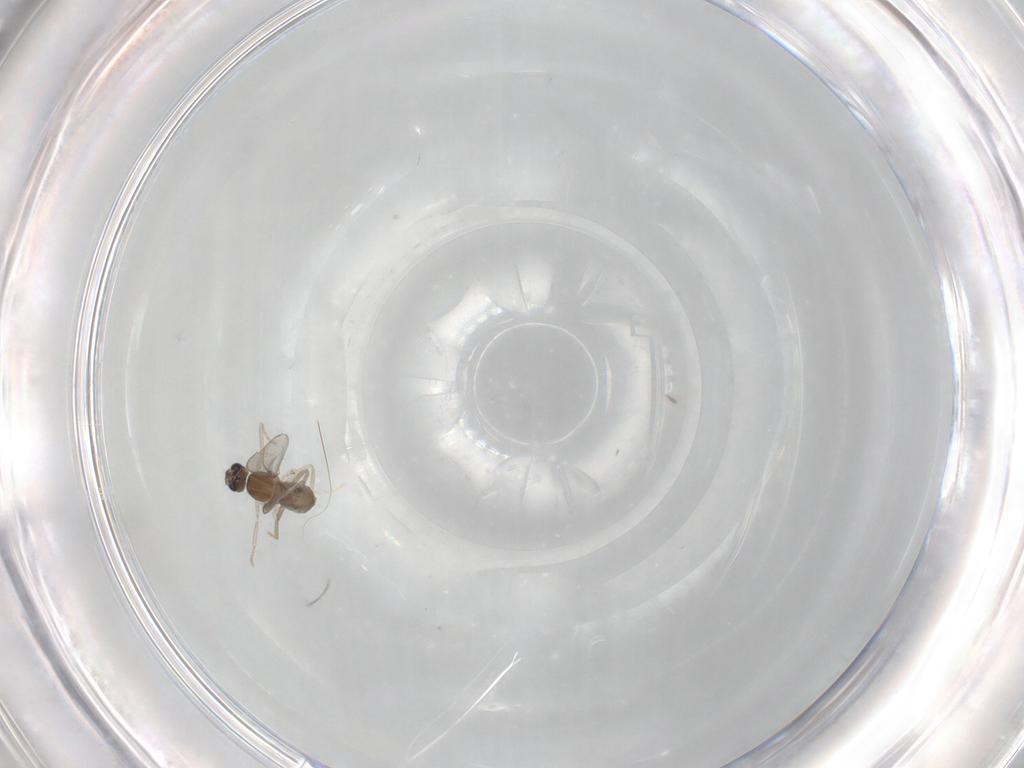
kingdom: Animalia
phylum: Arthropoda
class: Insecta
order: Diptera
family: Cecidomyiidae
